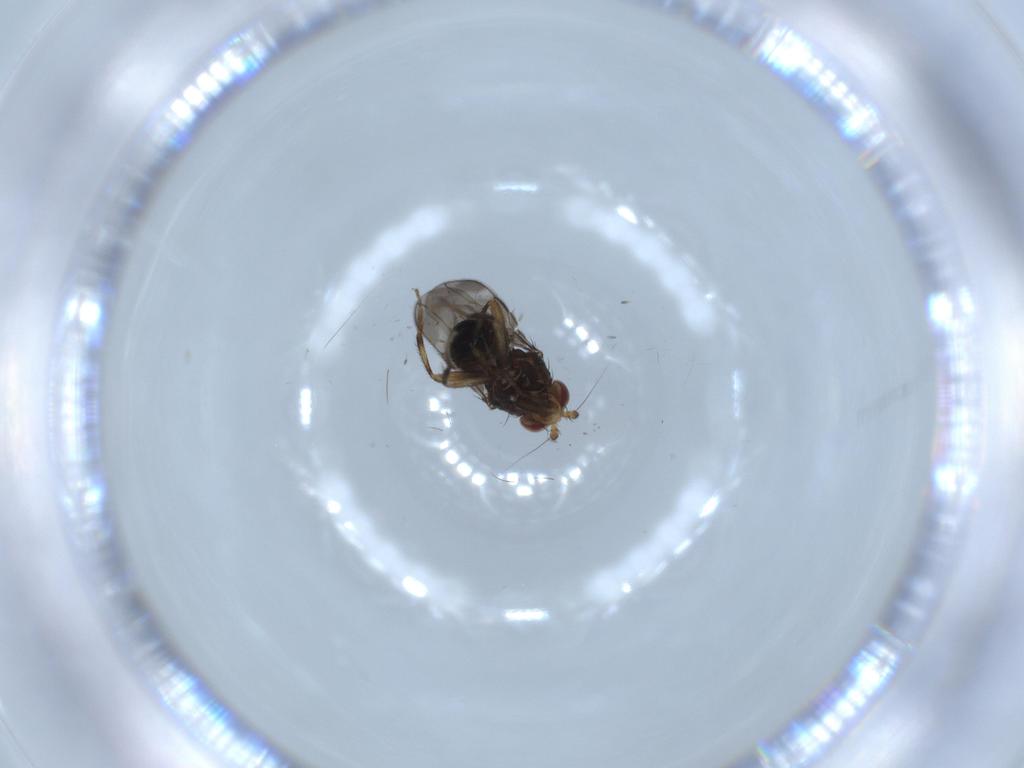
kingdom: Animalia
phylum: Arthropoda
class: Insecta
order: Diptera
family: Sphaeroceridae
